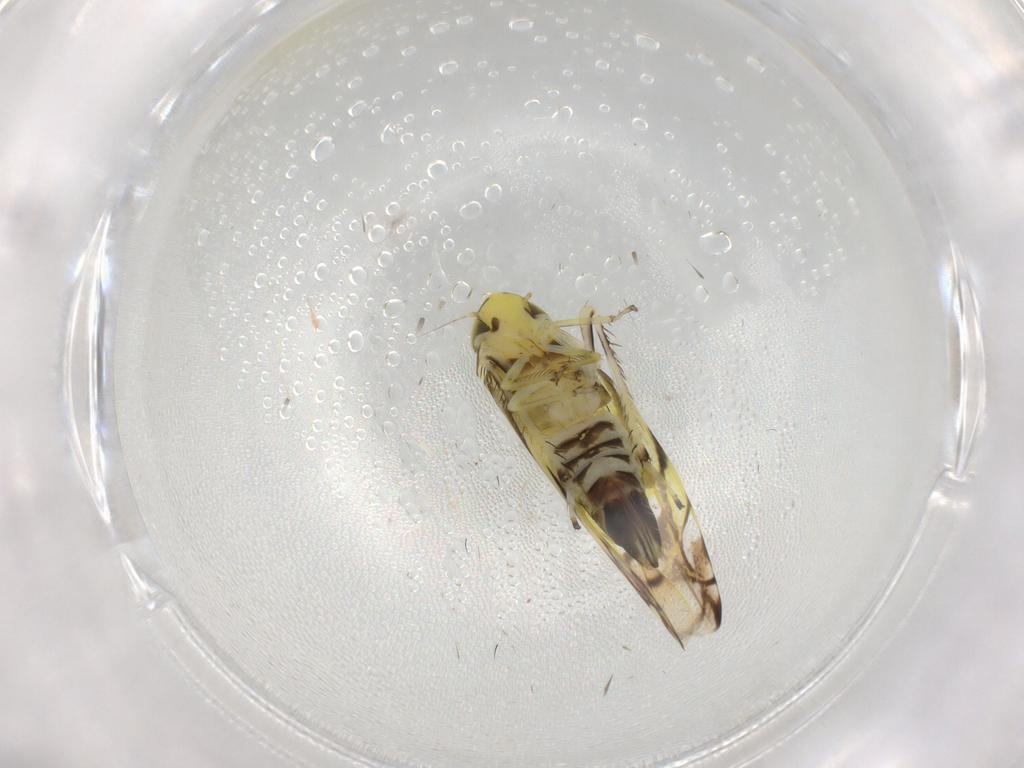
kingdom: Animalia
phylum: Arthropoda
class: Insecta
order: Hemiptera
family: Cicadellidae
